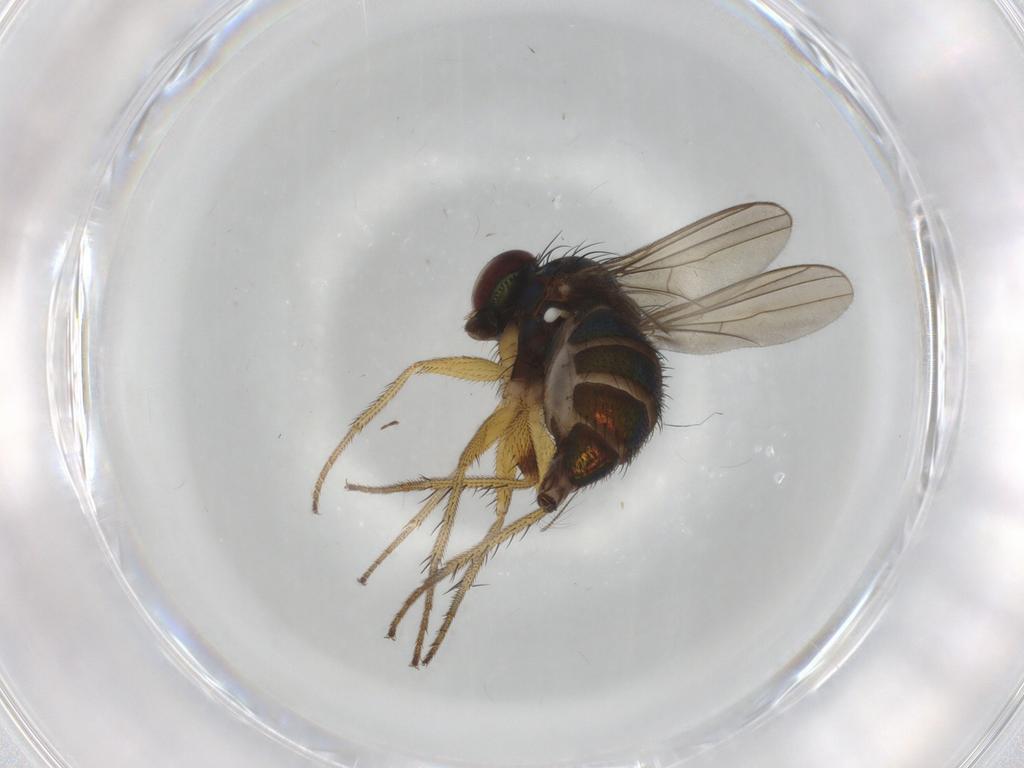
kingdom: Animalia
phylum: Arthropoda
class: Insecta
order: Diptera
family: Dolichopodidae
